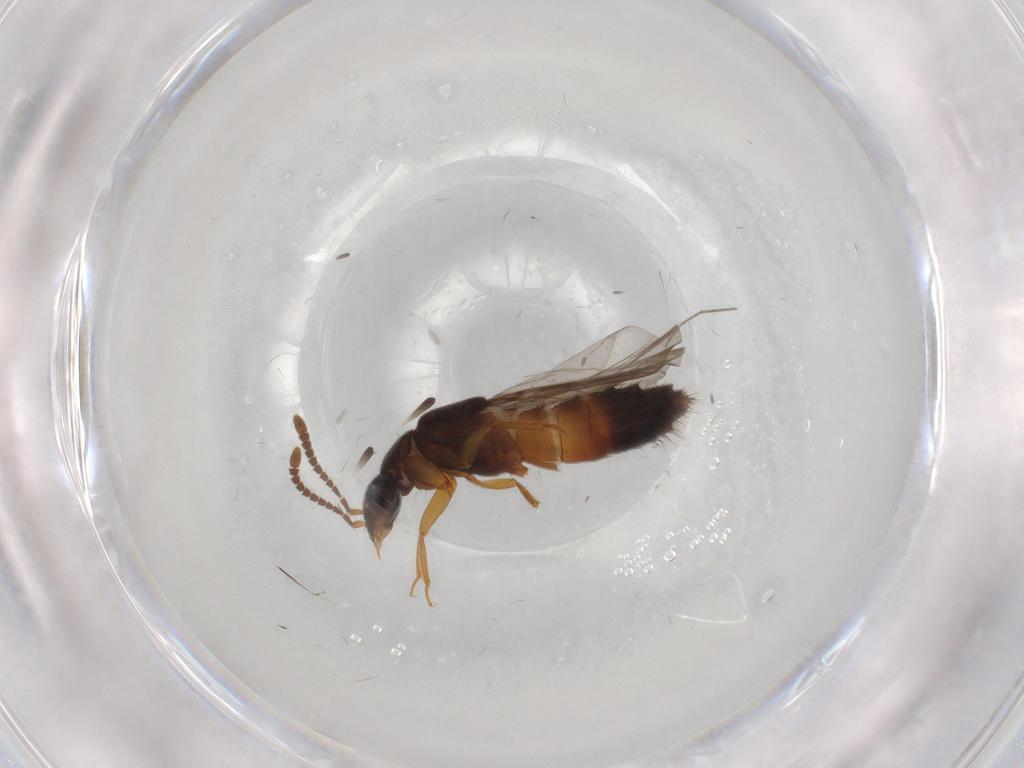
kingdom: Animalia
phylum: Arthropoda
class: Insecta
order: Coleoptera
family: Staphylinidae
